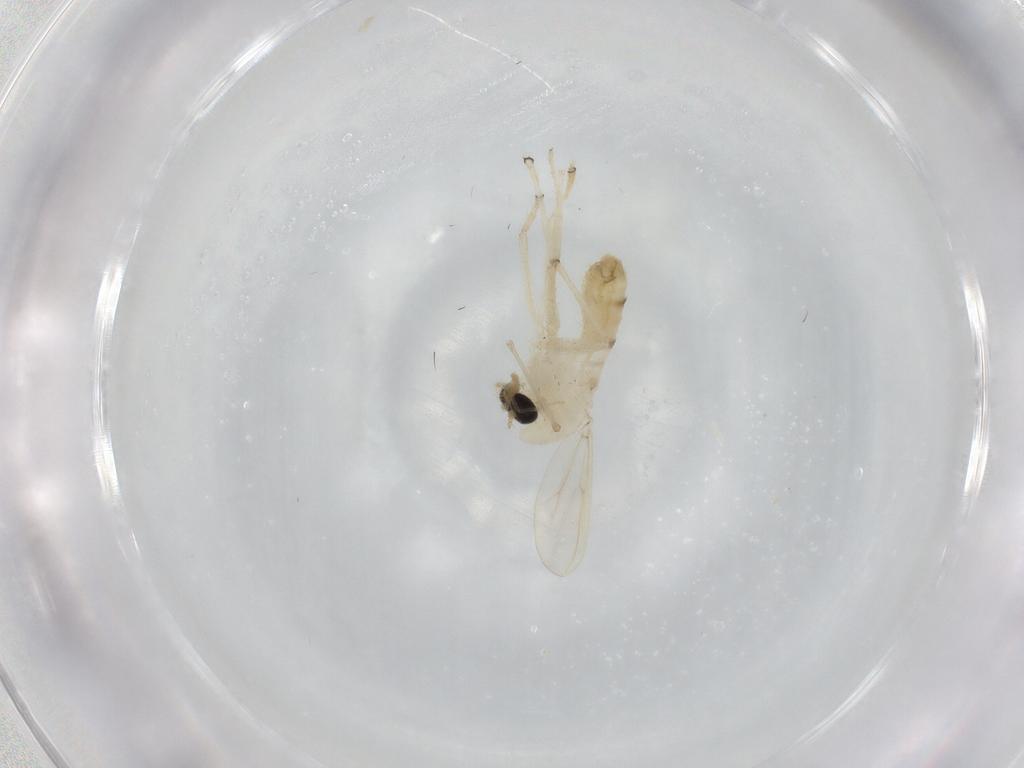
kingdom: Animalia
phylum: Arthropoda
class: Insecta
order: Diptera
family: Chironomidae
